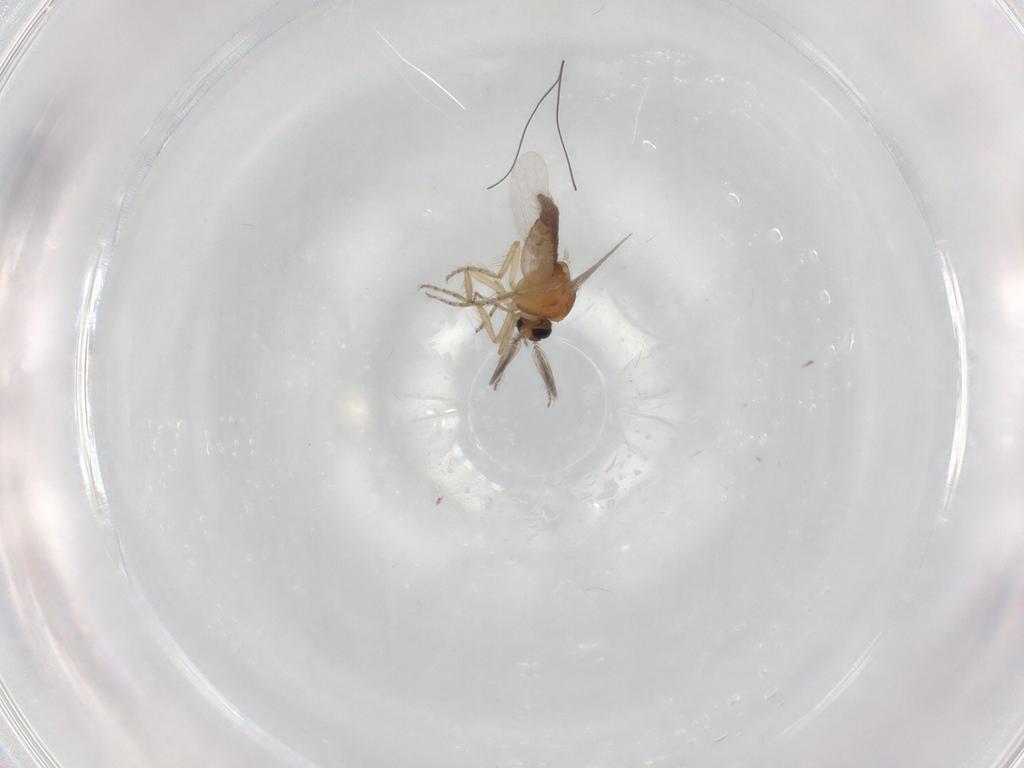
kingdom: Animalia
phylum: Arthropoda
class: Insecta
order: Diptera
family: Ceratopogonidae
